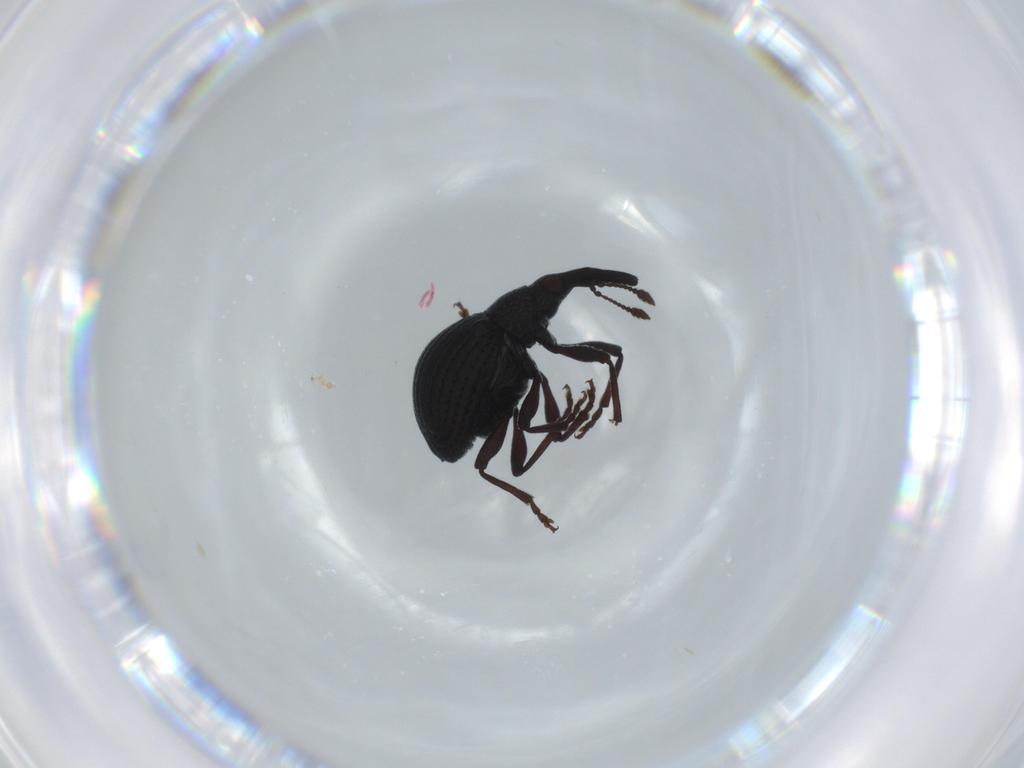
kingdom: Animalia
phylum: Arthropoda
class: Insecta
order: Coleoptera
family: Brentidae
